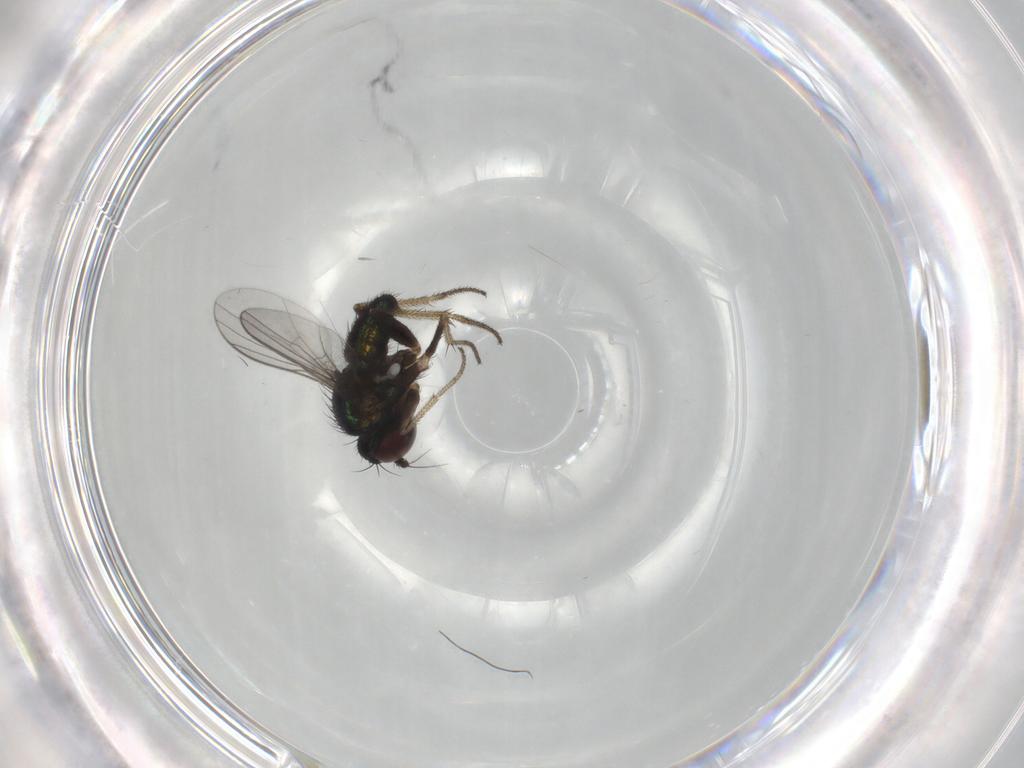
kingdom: Animalia
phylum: Arthropoda
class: Insecta
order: Diptera
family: Dolichopodidae
